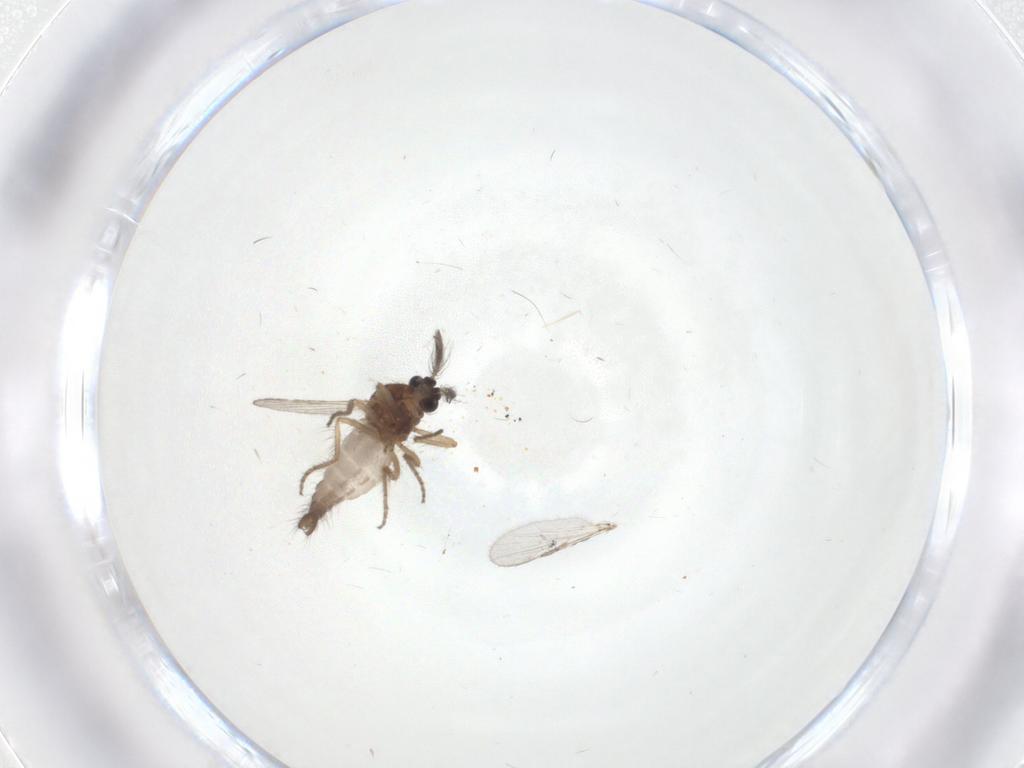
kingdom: Animalia
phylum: Arthropoda
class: Insecta
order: Diptera
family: Ceratopogonidae
